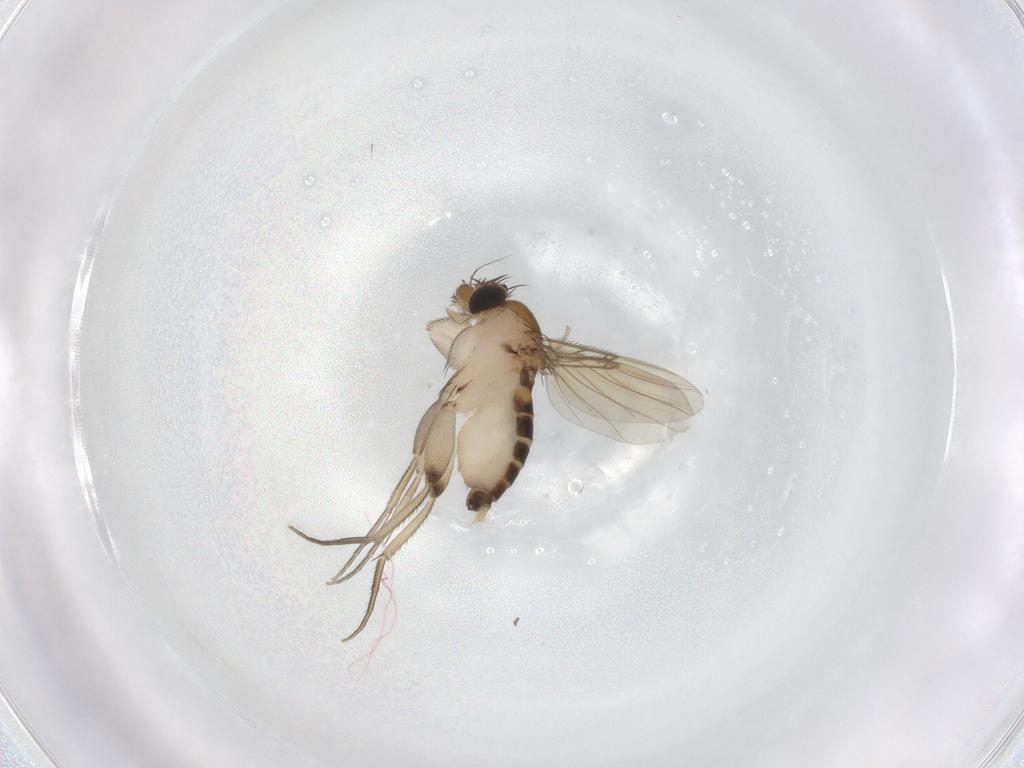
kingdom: Animalia
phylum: Arthropoda
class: Insecta
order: Diptera
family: Phoridae
